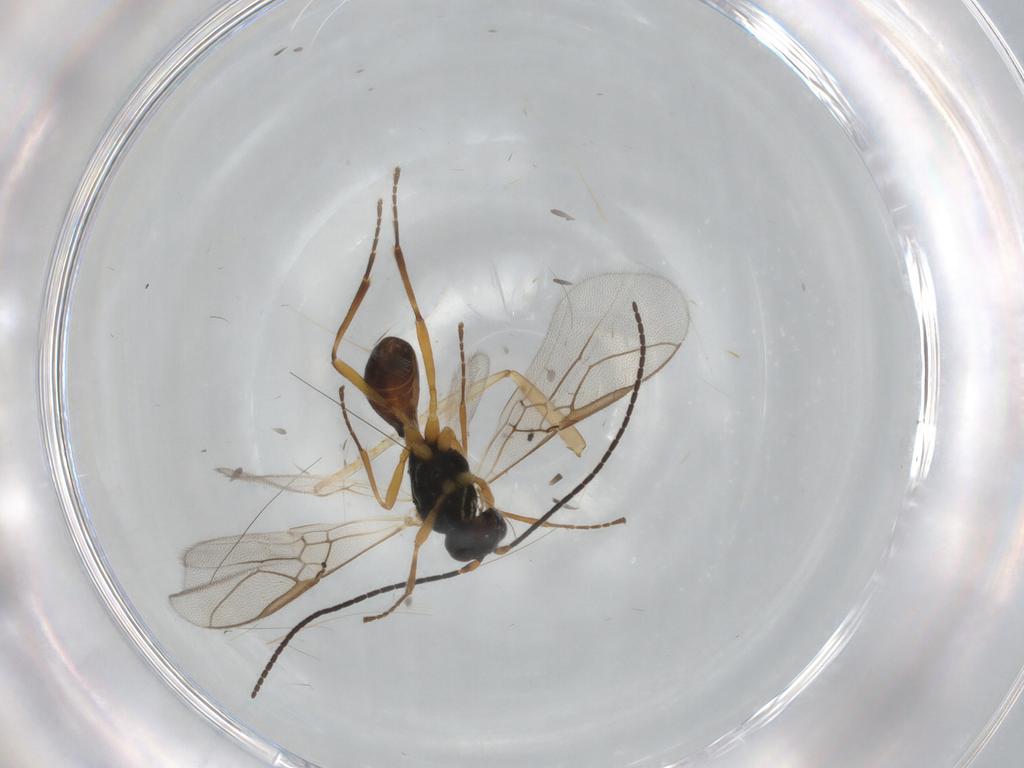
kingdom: Animalia
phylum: Arthropoda
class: Insecta
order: Hymenoptera
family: Braconidae
